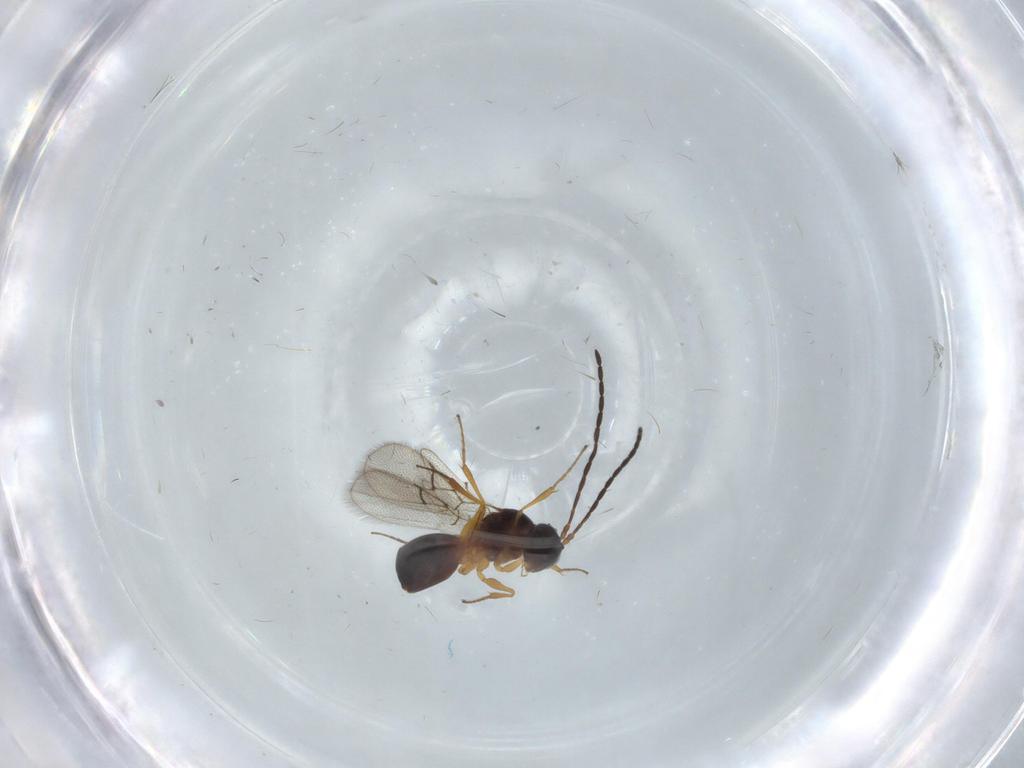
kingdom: Animalia
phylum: Arthropoda
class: Insecta
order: Hymenoptera
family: Figitidae
